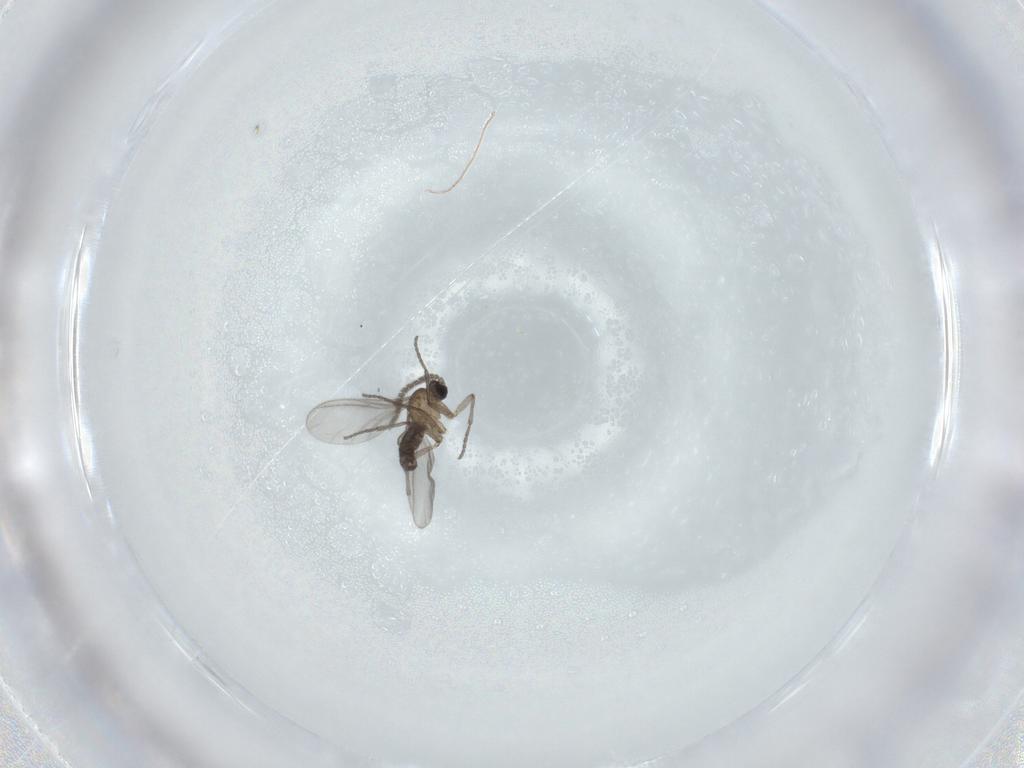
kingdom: Animalia
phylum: Arthropoda
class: Insecta
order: Diptera
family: Sciaridae
